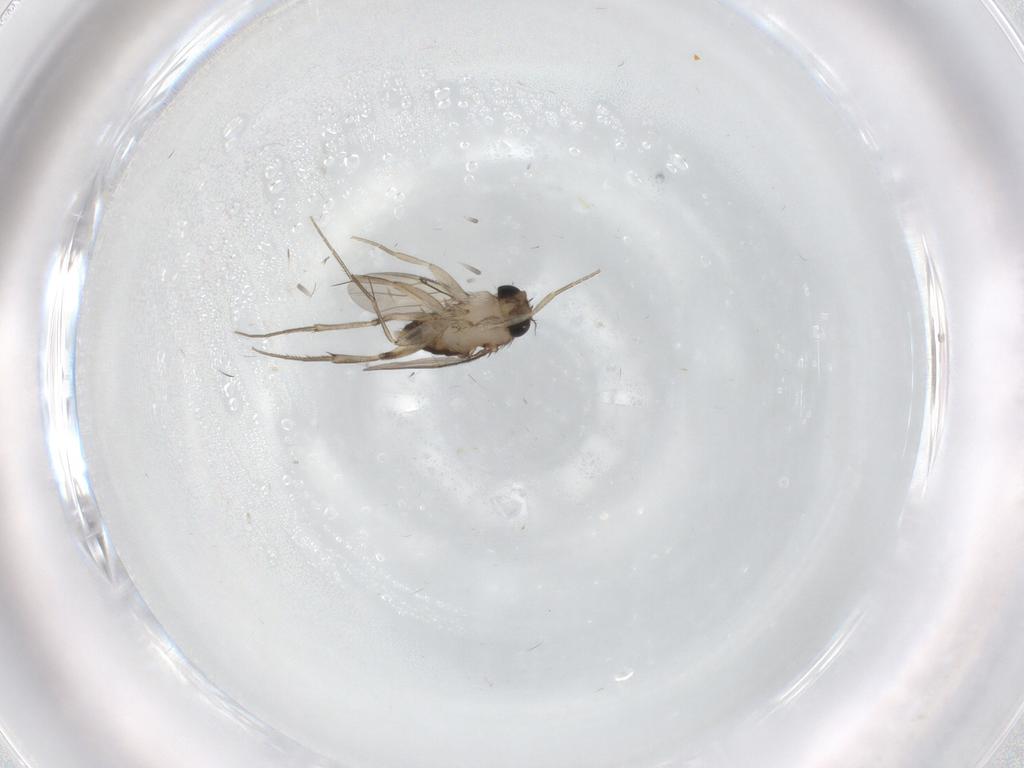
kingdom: Animalia
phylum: Arthropoda
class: Insecta
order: Diptera
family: Phoridae
